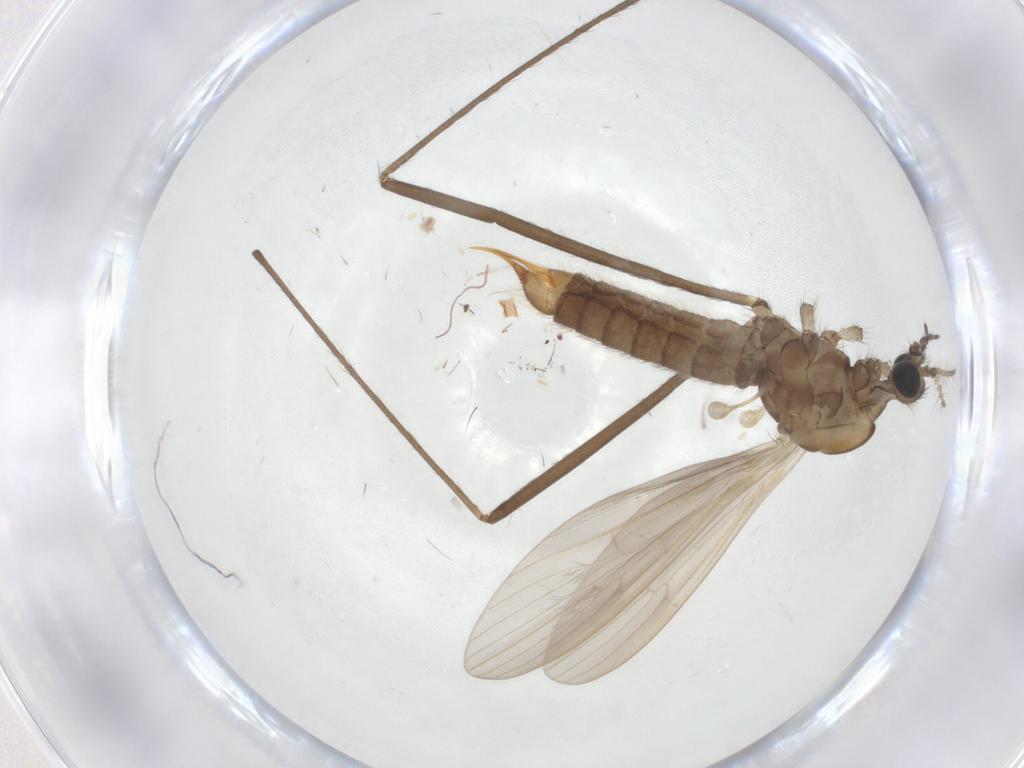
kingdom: Animalia
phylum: Arthropoda
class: Insecta
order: Diptera
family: Limoniidae
